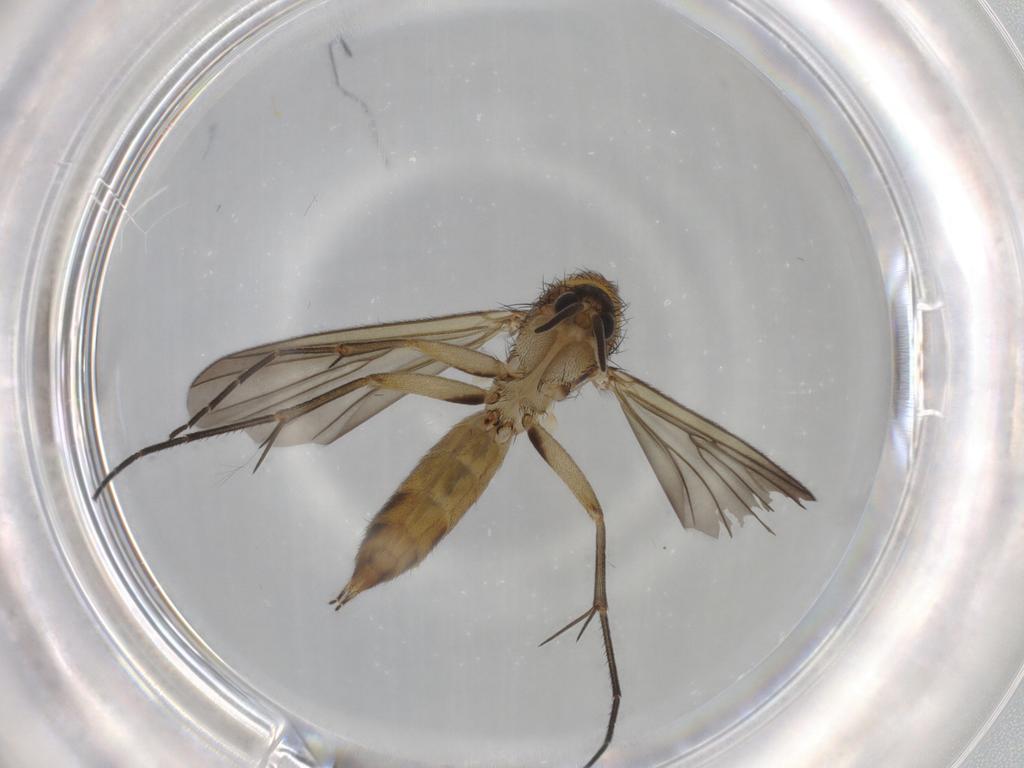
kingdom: Animalia
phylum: Arthropoda
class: Insecta
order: Diptera
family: Mycetophilidae
